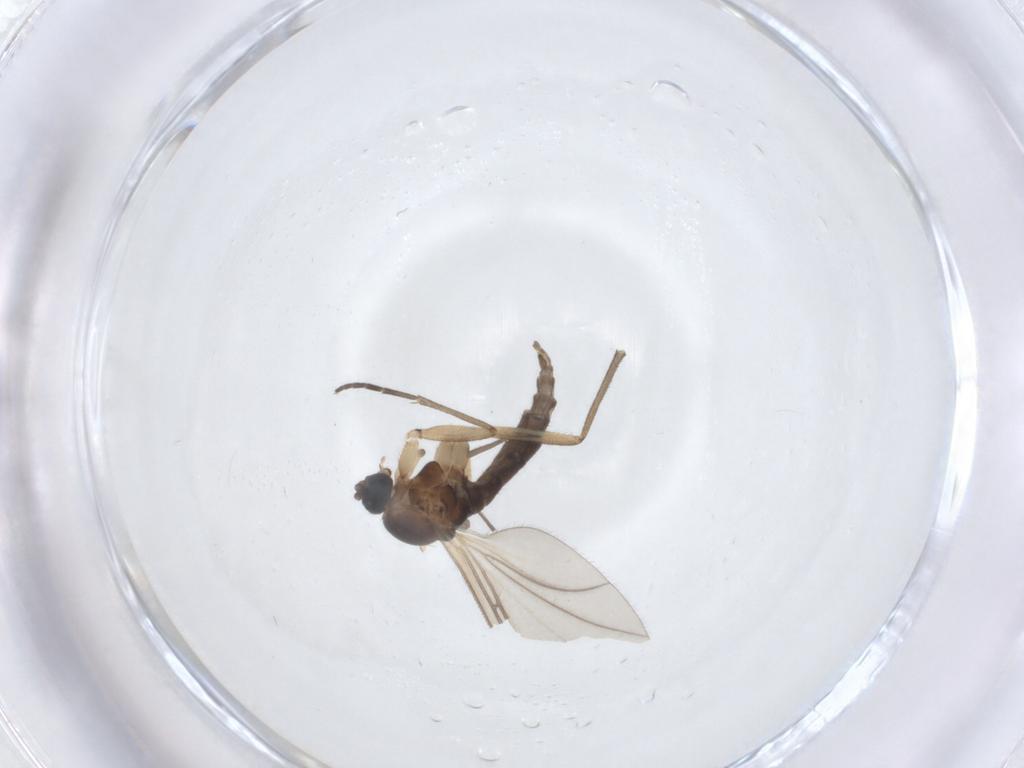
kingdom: Animalia
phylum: Arthropoda
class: Insecta
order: Diptera
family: Sciaridae
